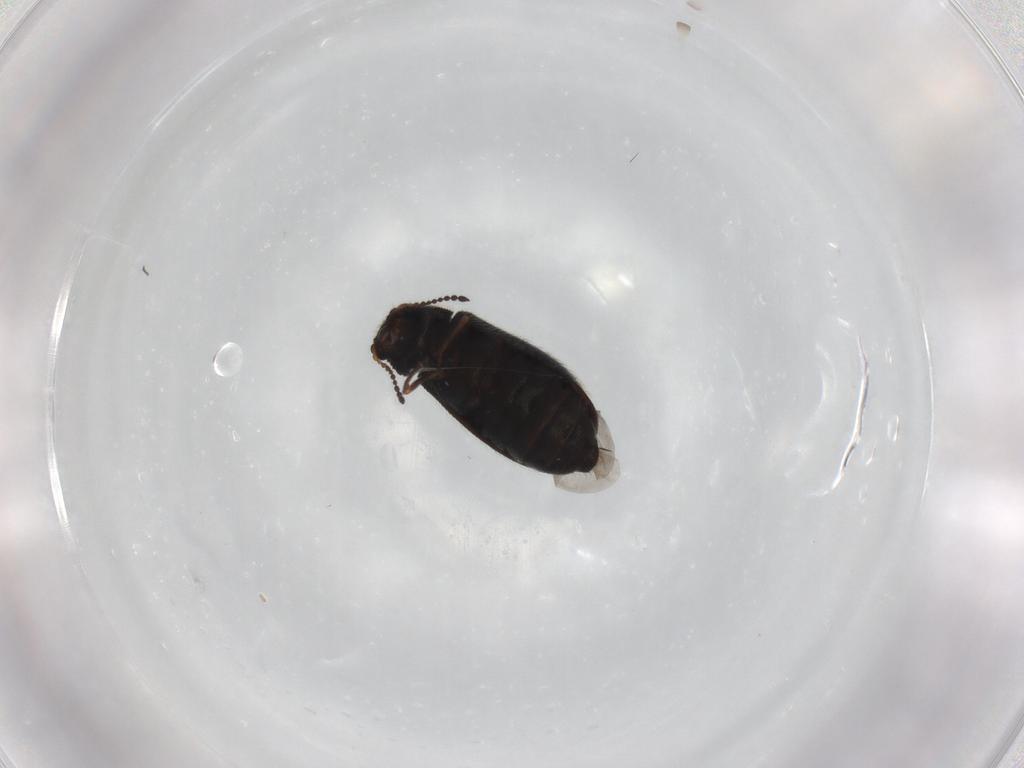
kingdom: Animalia
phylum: Arthropoda
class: Insecta
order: Coleoptera
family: Melyridae
